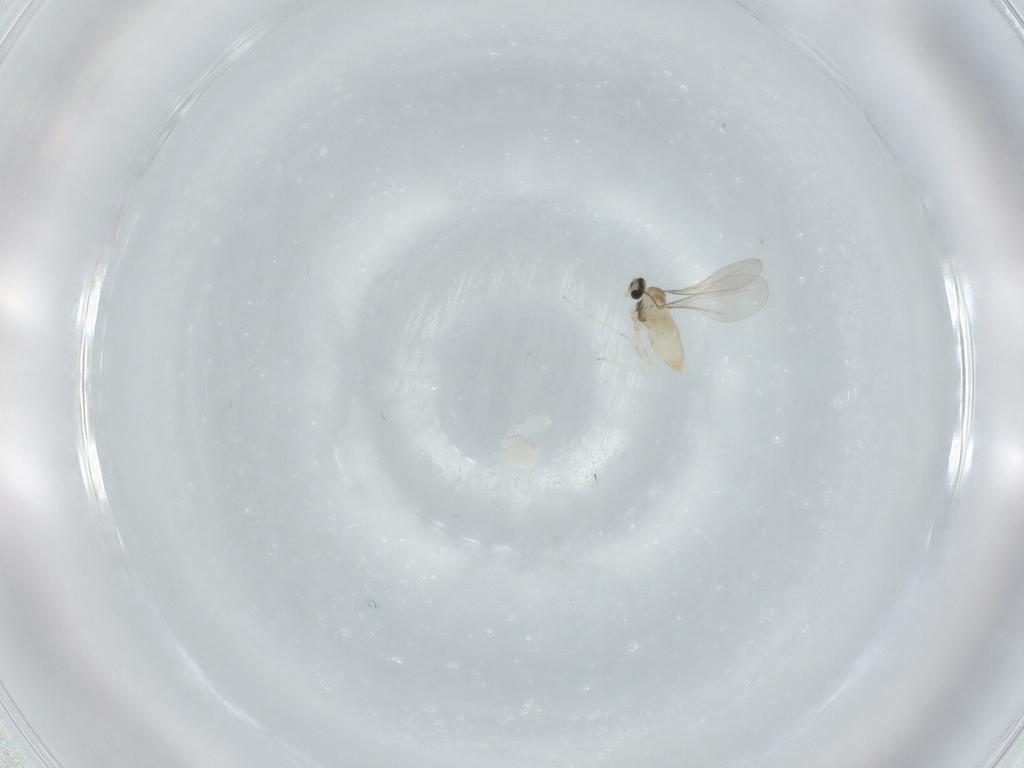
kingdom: Animalia
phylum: Arthropoda
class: Insecta
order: Diptera
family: Cecidomyiidae
